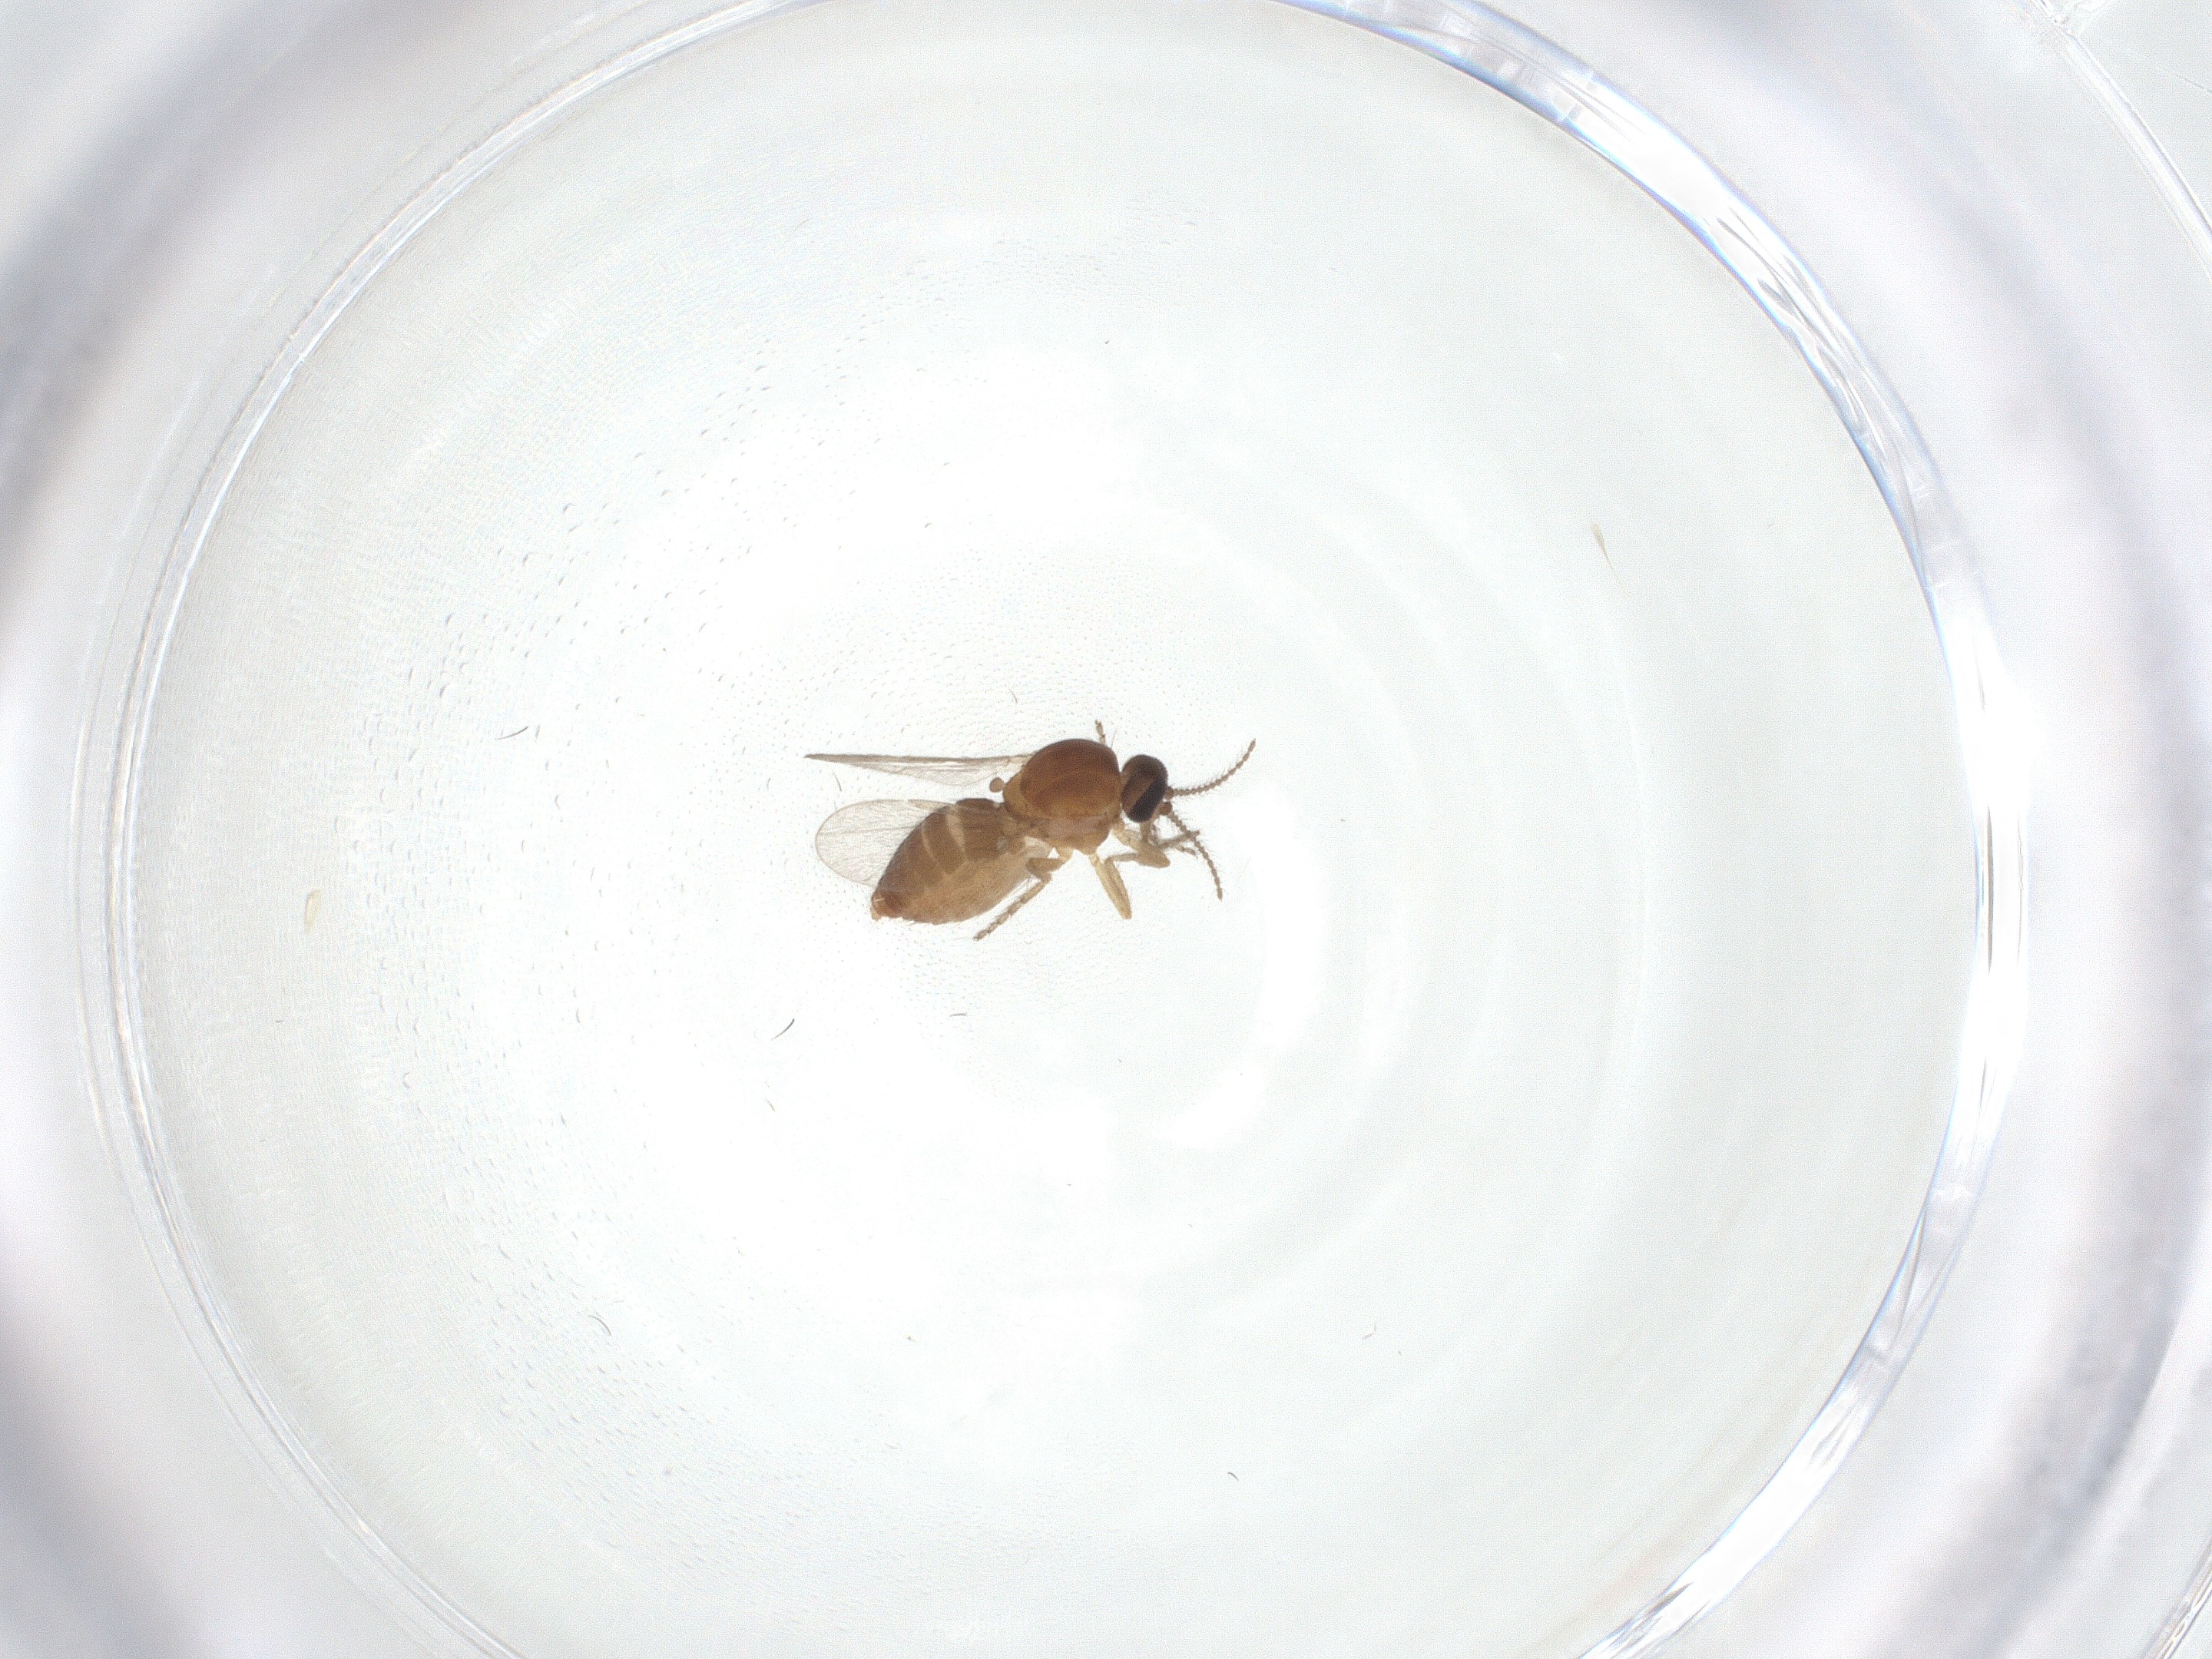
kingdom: Animalia
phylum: Arthropoda
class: Insecta
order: Diptera
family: Ceratopogonidae
